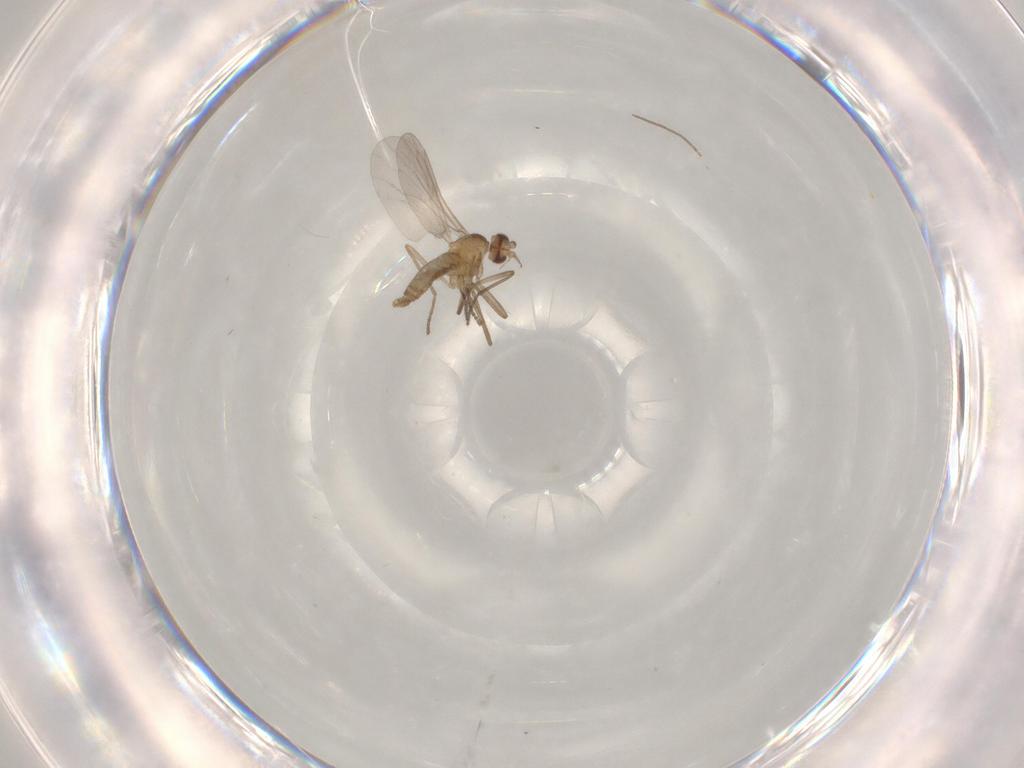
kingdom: Animalia
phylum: Arthropoda
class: Insecta
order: Diptera
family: Cecidomyiidae
